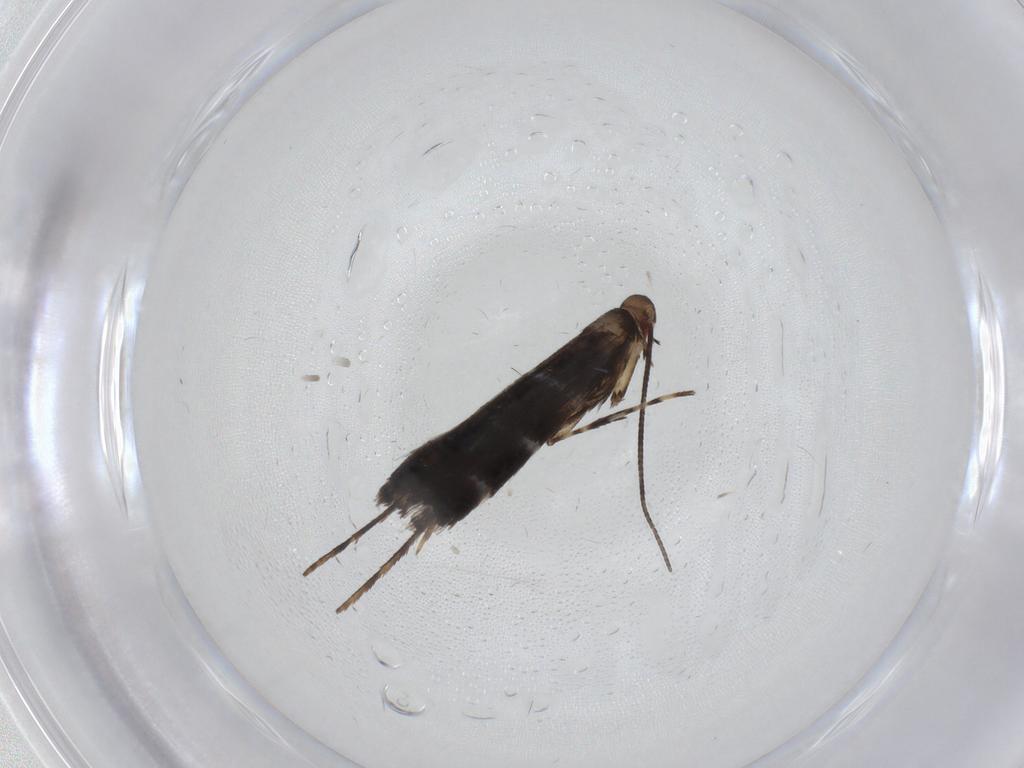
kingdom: Animalia
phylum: Arthropoda
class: Insecta
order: Lepidoptera
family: Gracillariidae
